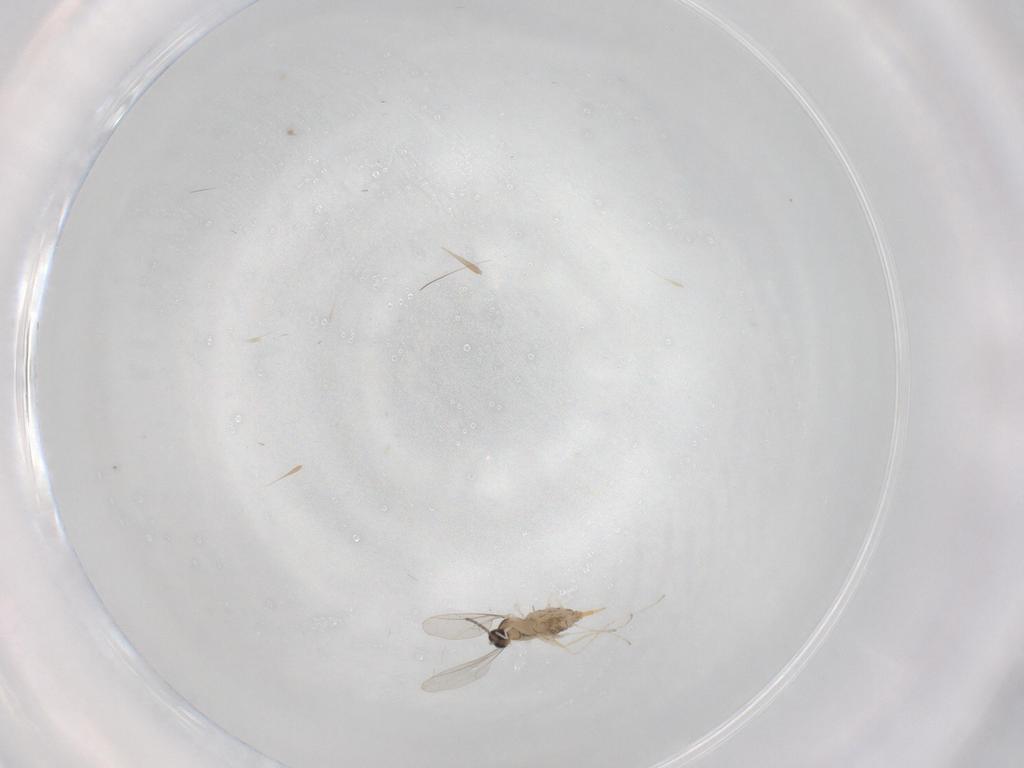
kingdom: Animalia
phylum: Arthropoda
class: Insecta
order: Diptera
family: Cecidomyiidae
